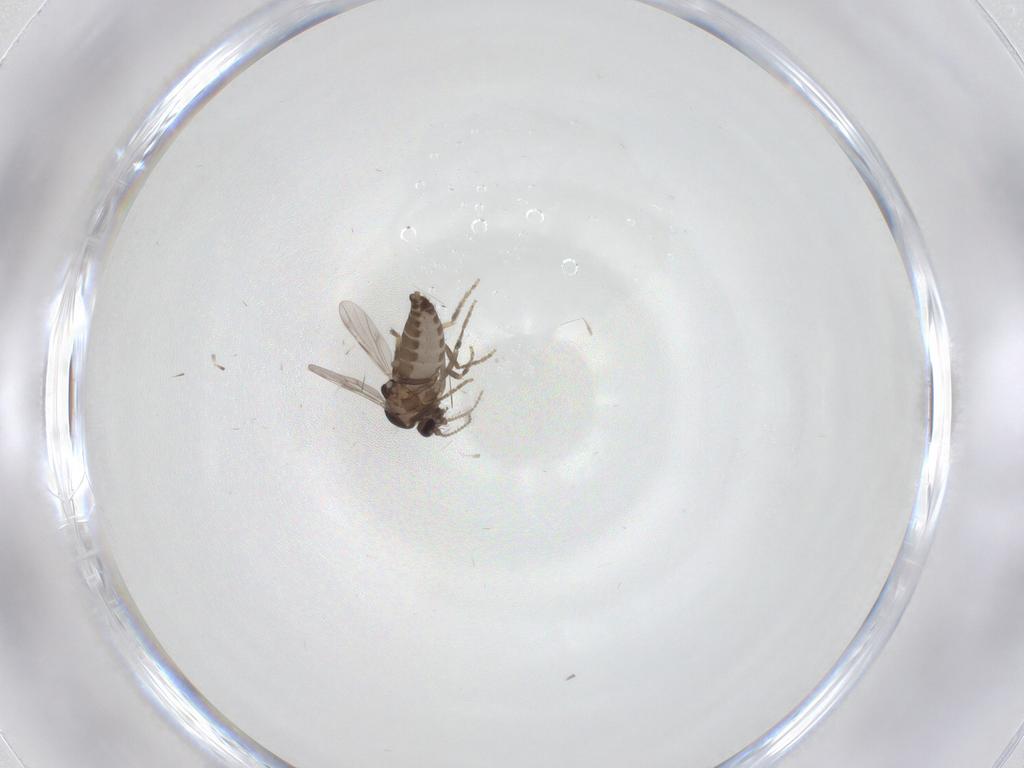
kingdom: Animalia
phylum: Arthropoda
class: Insecta
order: Diptera
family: Ceratopogonidae
